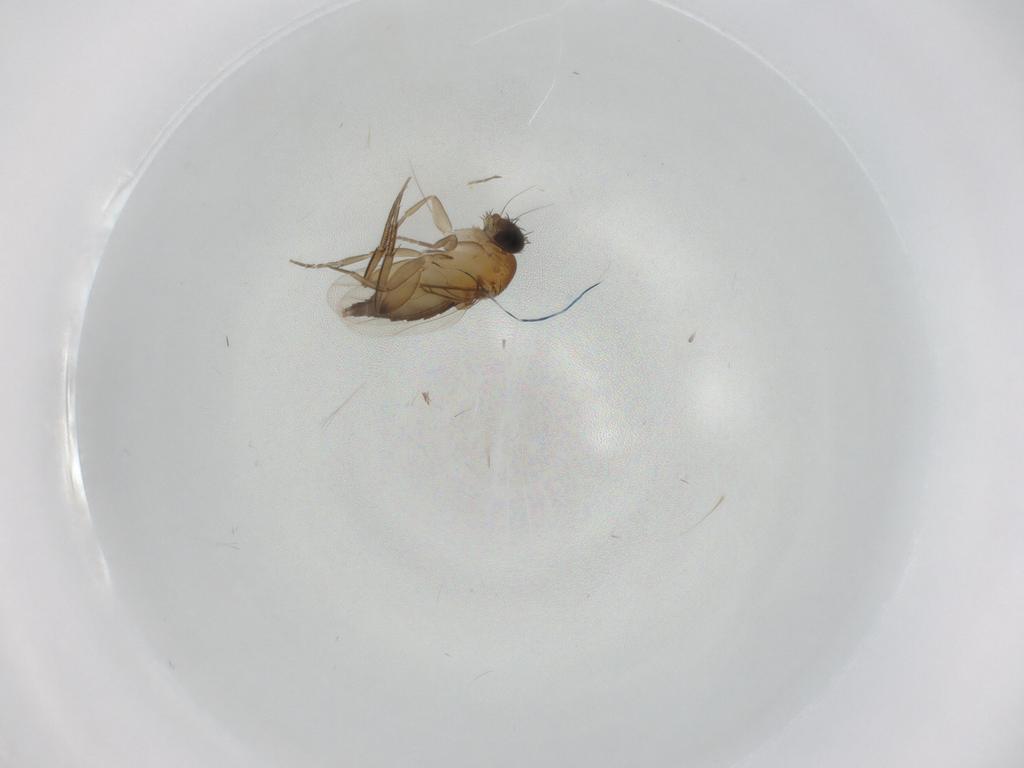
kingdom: Animalia
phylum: Arthropoda
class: Insecta
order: Diptera
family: Phoridae
